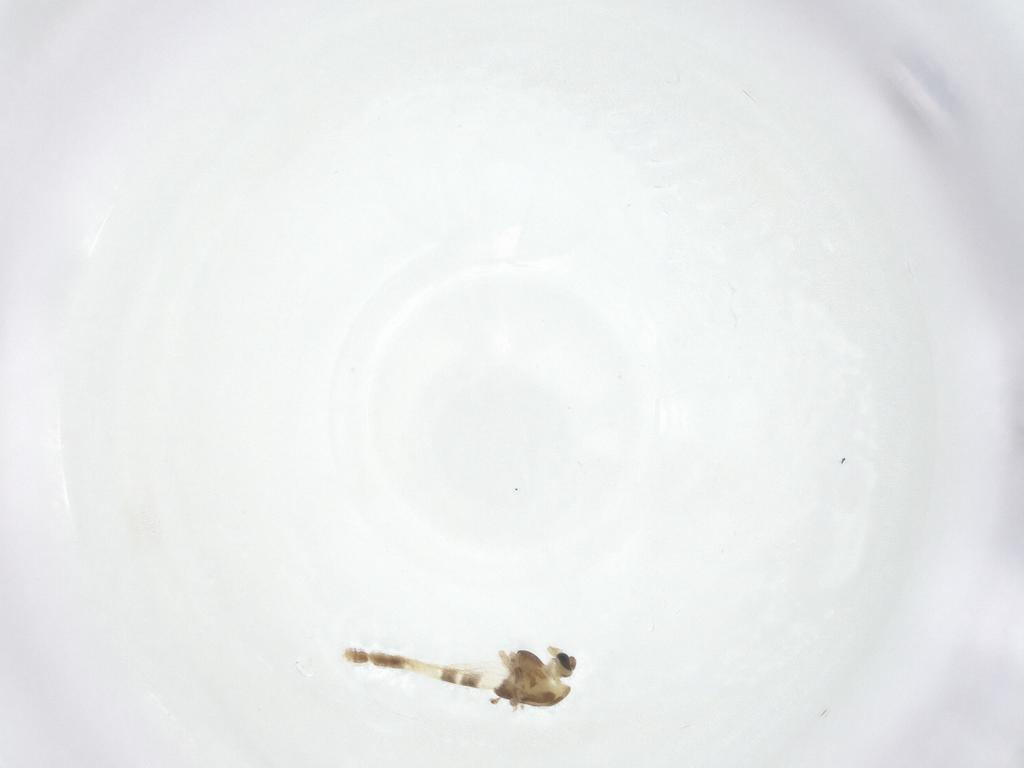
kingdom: Animalia
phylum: Arthropoda
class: Insecta
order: Diptera
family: Chironomidae
